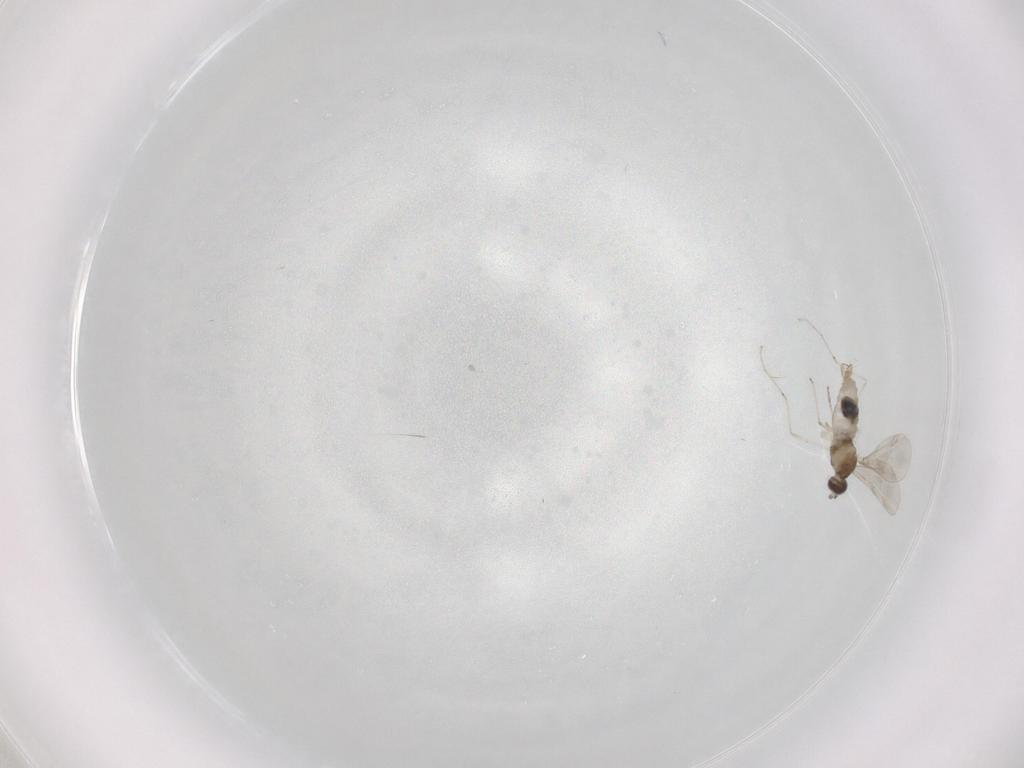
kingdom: Animalia
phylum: Arthropoda
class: Insecta
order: Diptera
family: Cecidomyiidae
